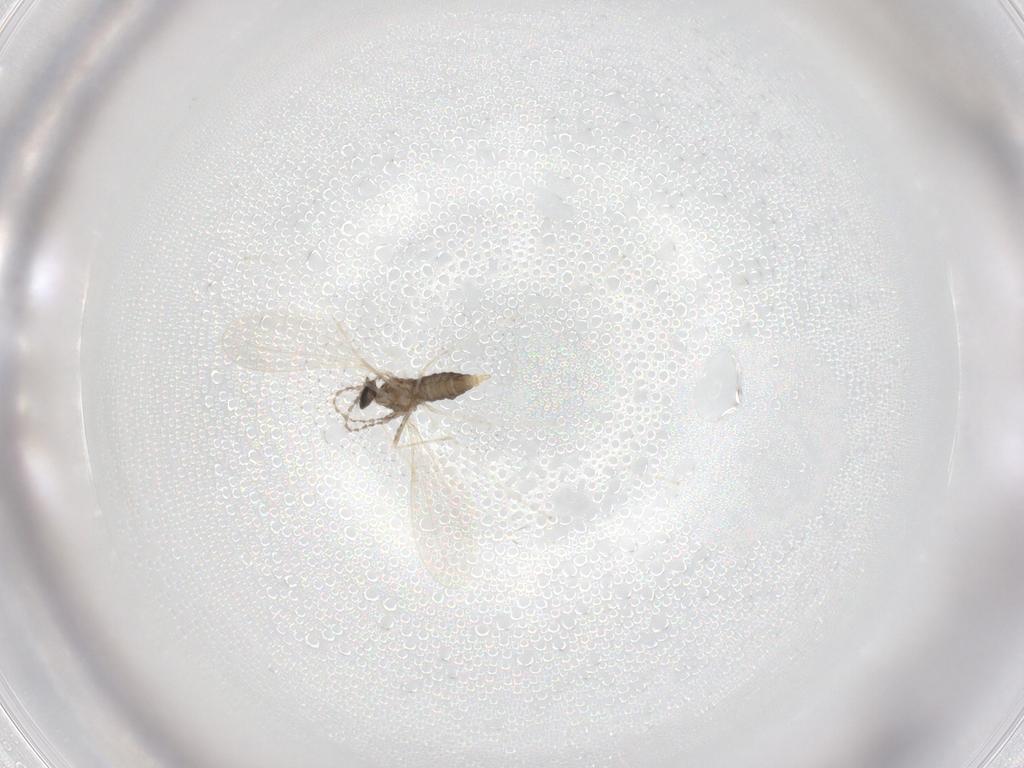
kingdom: Animalia
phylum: Arthropoda
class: Insecta
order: Diptera
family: Cecidomyiidae
